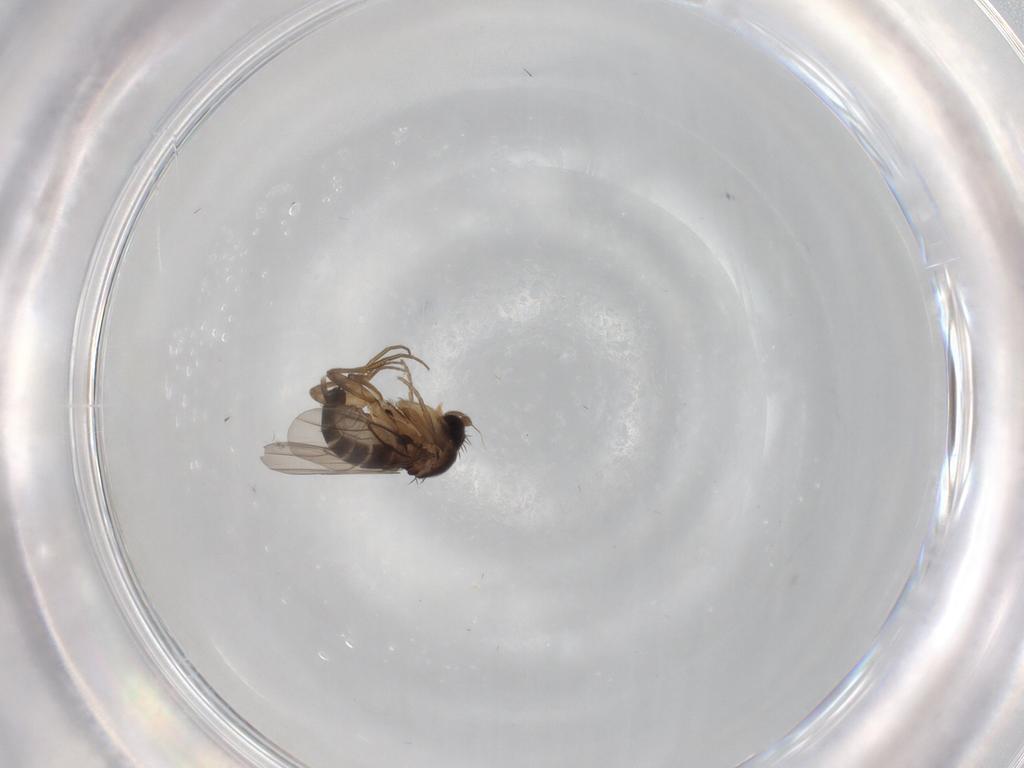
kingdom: Animalia
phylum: Arthropoda
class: Insecta
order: Diptera
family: Phoridae
